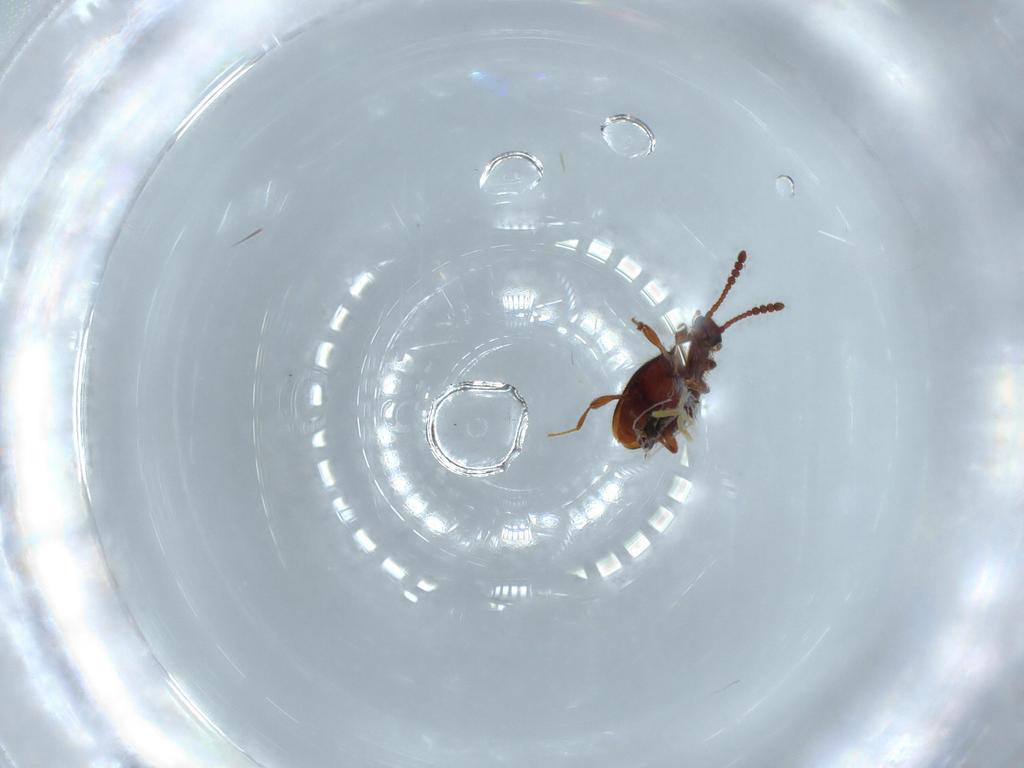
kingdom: Animalia
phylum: Arthropoda
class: Insecta
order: Coleoptera
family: Staphylinidae
